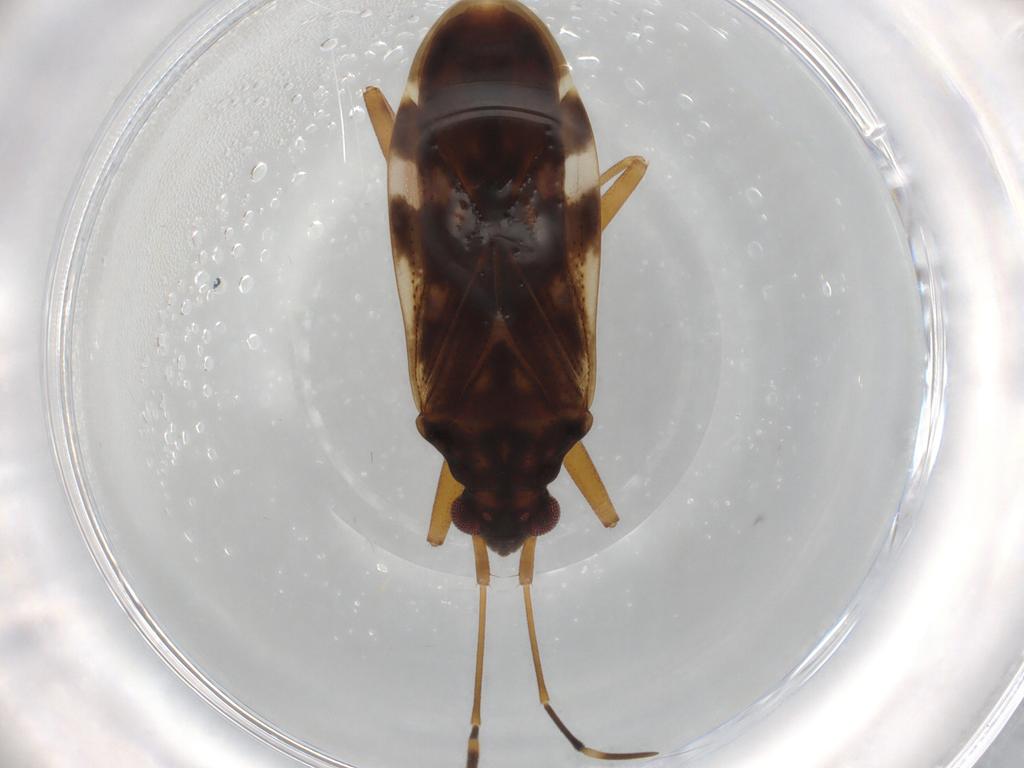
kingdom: Animalia
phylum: Arthropoda
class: Insecta
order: Hemiptera
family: Rhyparochromidae
